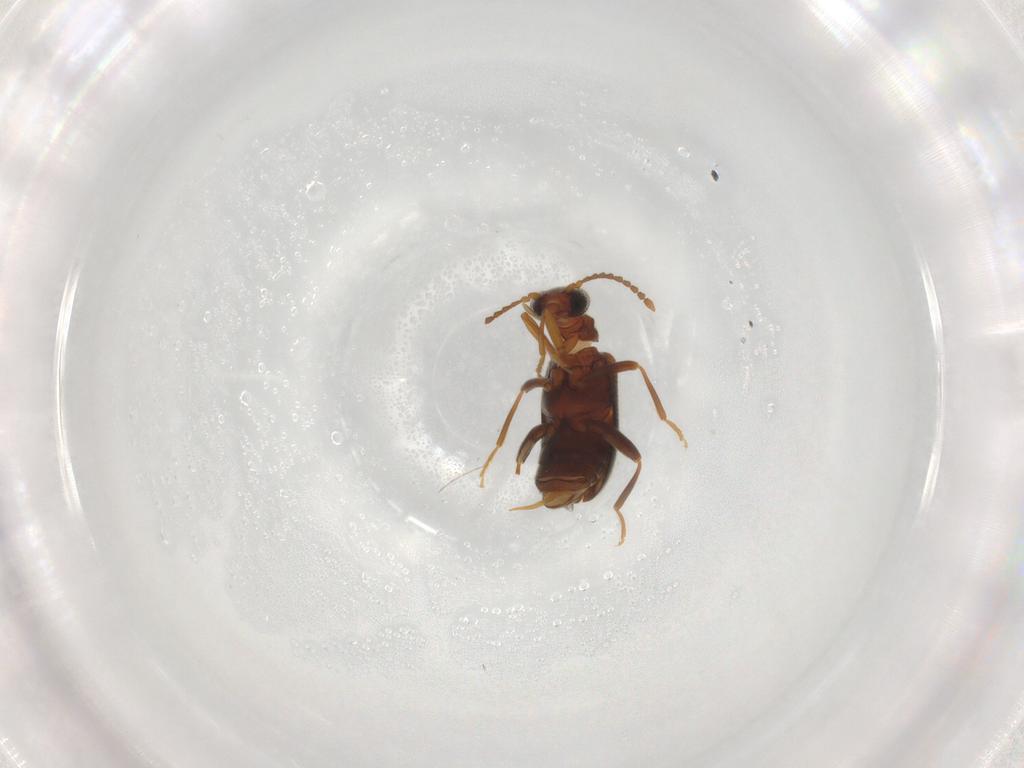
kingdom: Animalia
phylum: Arthropoda
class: Insecta
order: Coleoptera
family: Aderidae
